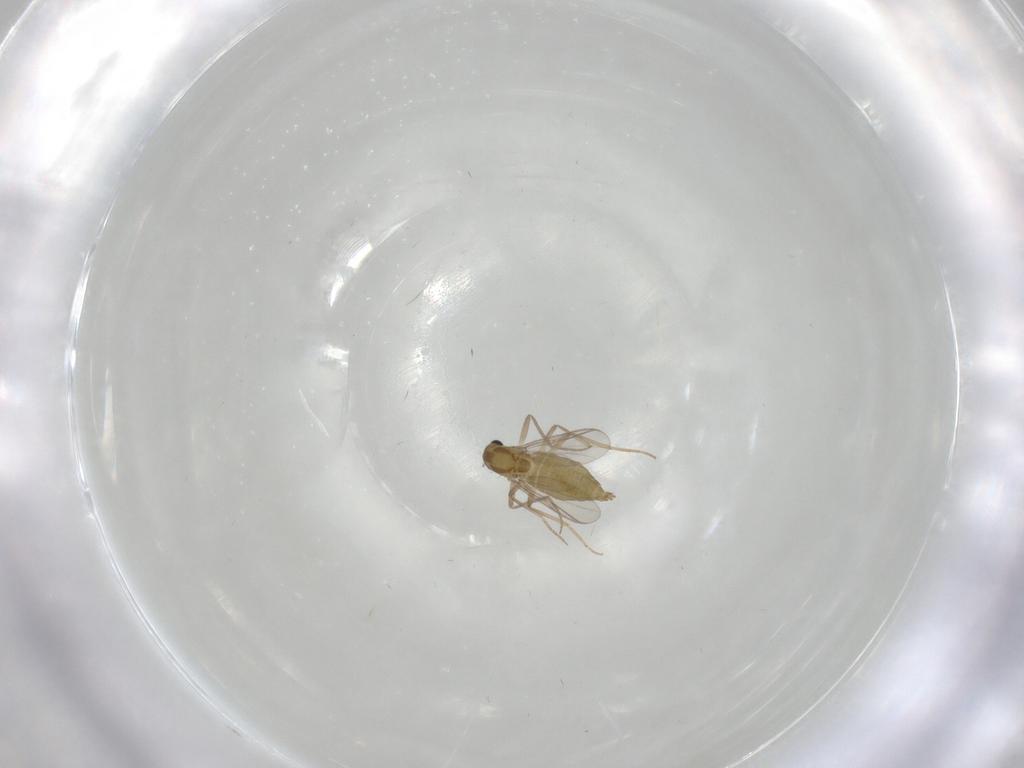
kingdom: Animalia
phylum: Arthropoda
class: Insecta
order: Diptera
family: Chironomidae
